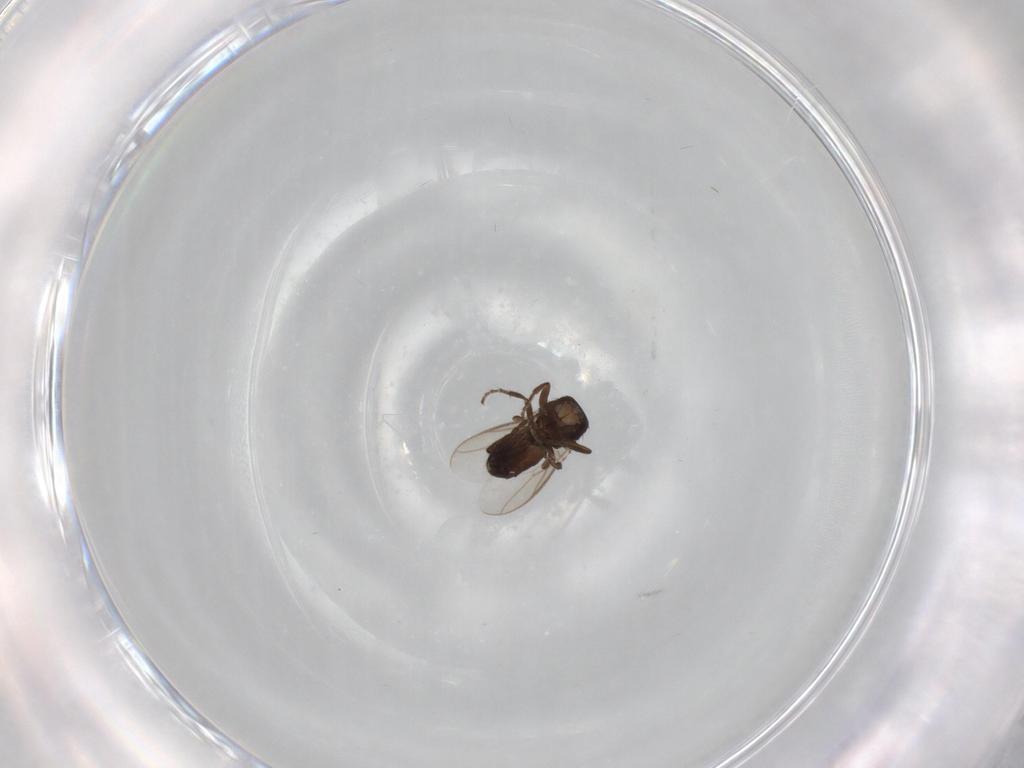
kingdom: Animalia
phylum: Arthropoda
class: Insecta
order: Diptera
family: Sphaeroceridae
